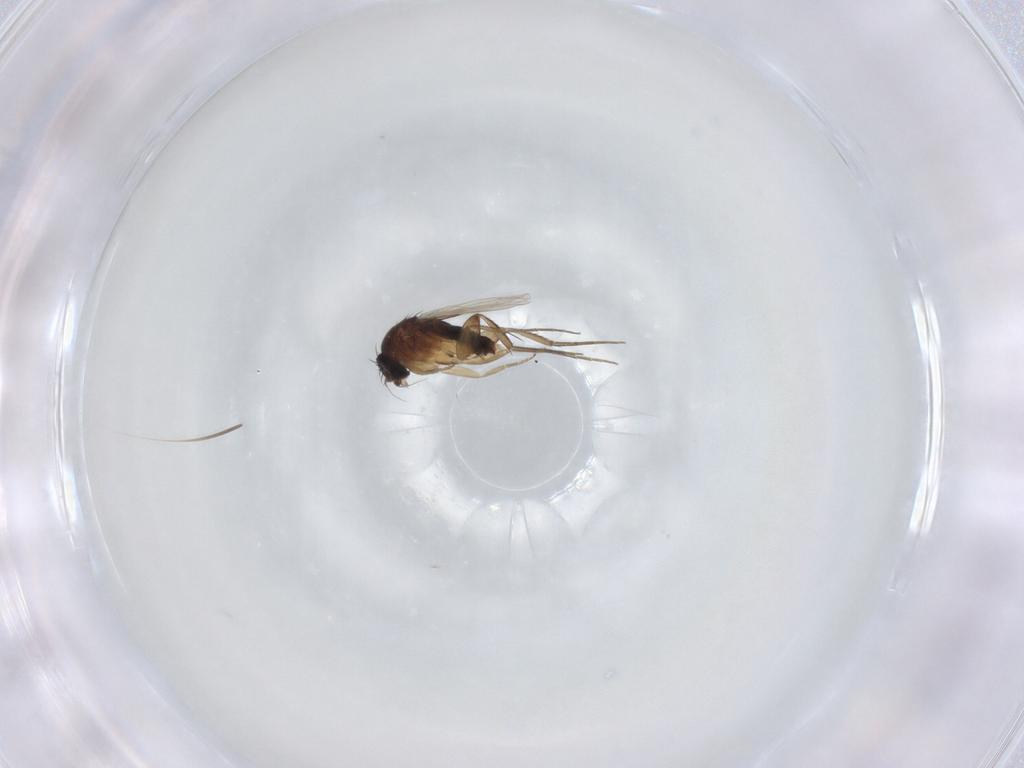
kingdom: Animalia
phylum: Arthropoda
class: Insecta
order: Diptera
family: Phoridae
